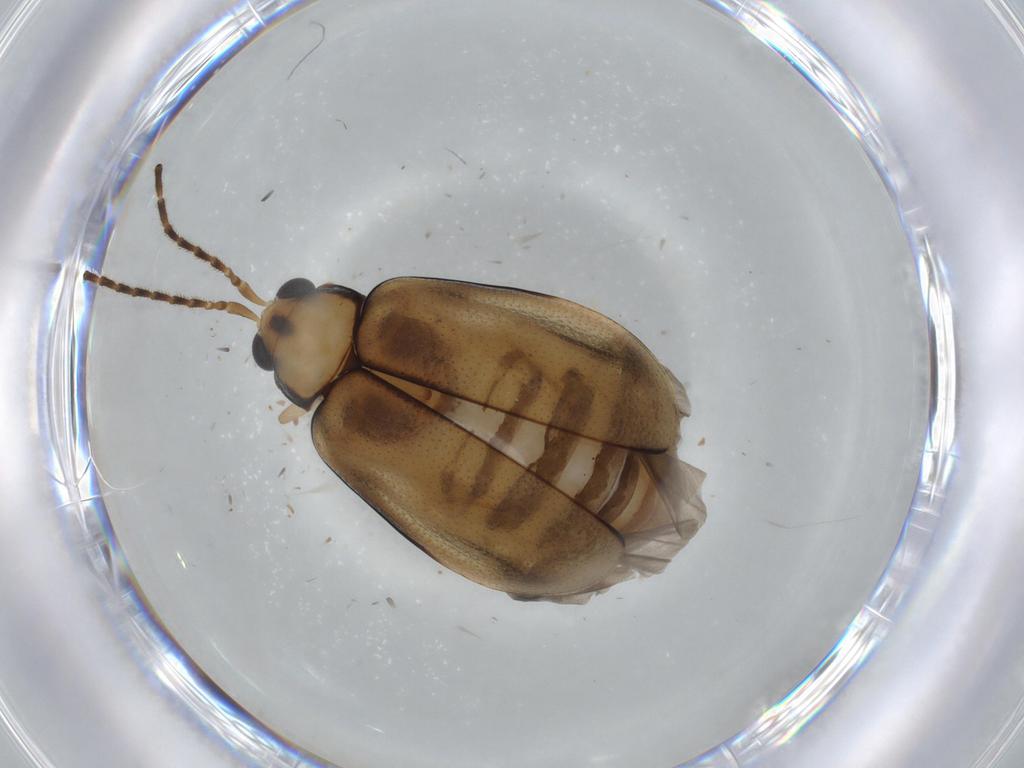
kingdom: Animalia
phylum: Arthropoda
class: Insecta
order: Coleoptera
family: Chrysomelidae
